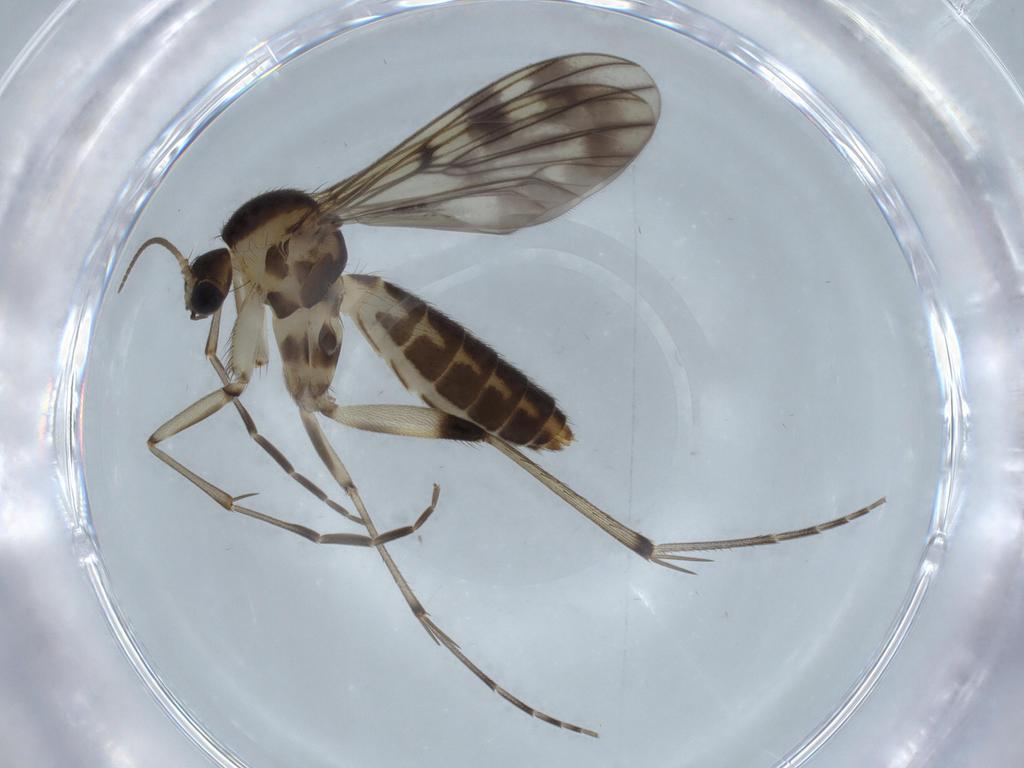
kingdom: Animalia
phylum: Arthropoda
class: Insecta
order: Diptera
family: Mycetophilidae
